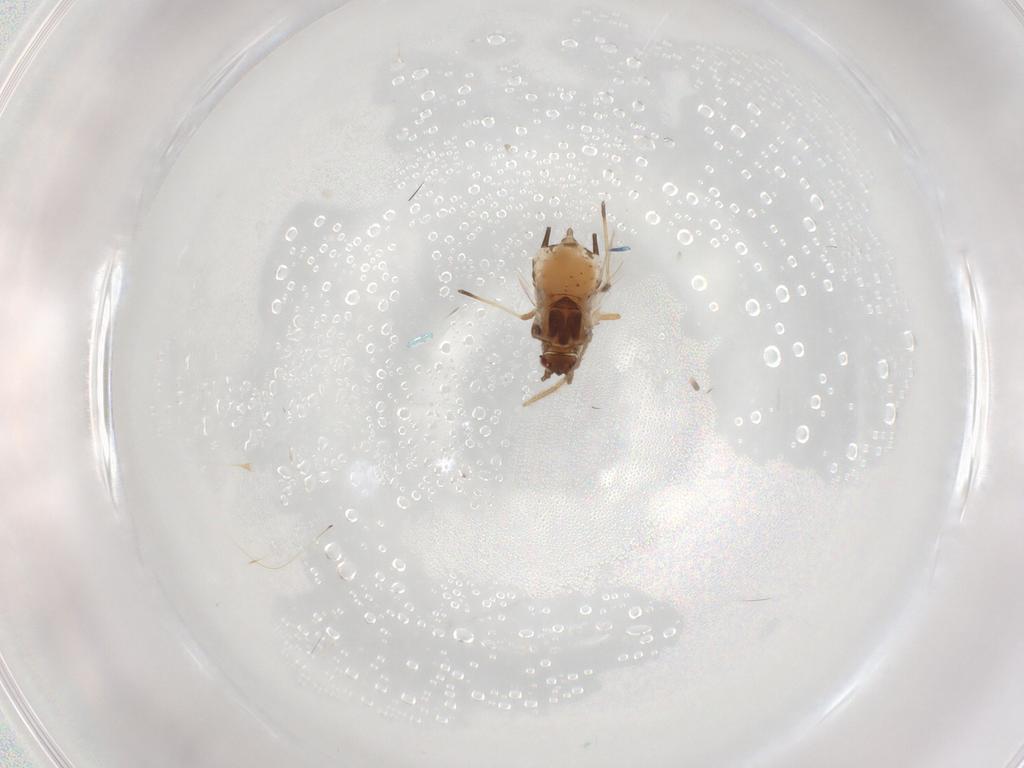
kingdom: Animalia
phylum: Arthropoda
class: Insecta
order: Hemiptera
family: Aphididae
